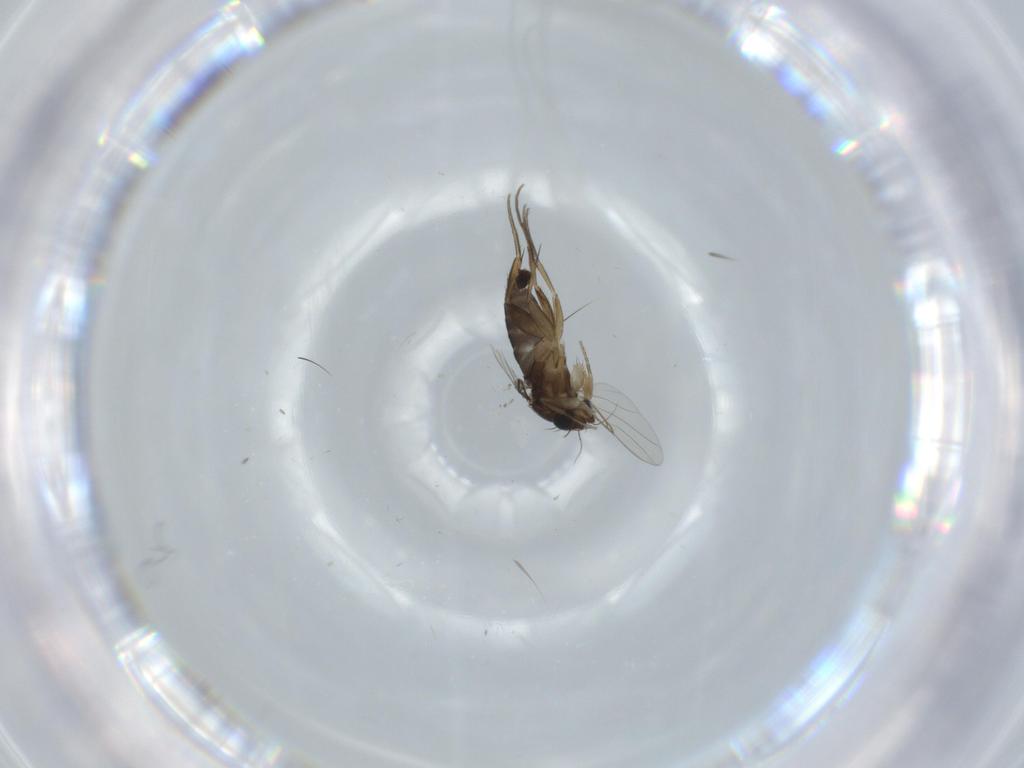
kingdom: Animalia
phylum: Arthropoda
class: Insecta
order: Diptera
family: Phoridae
